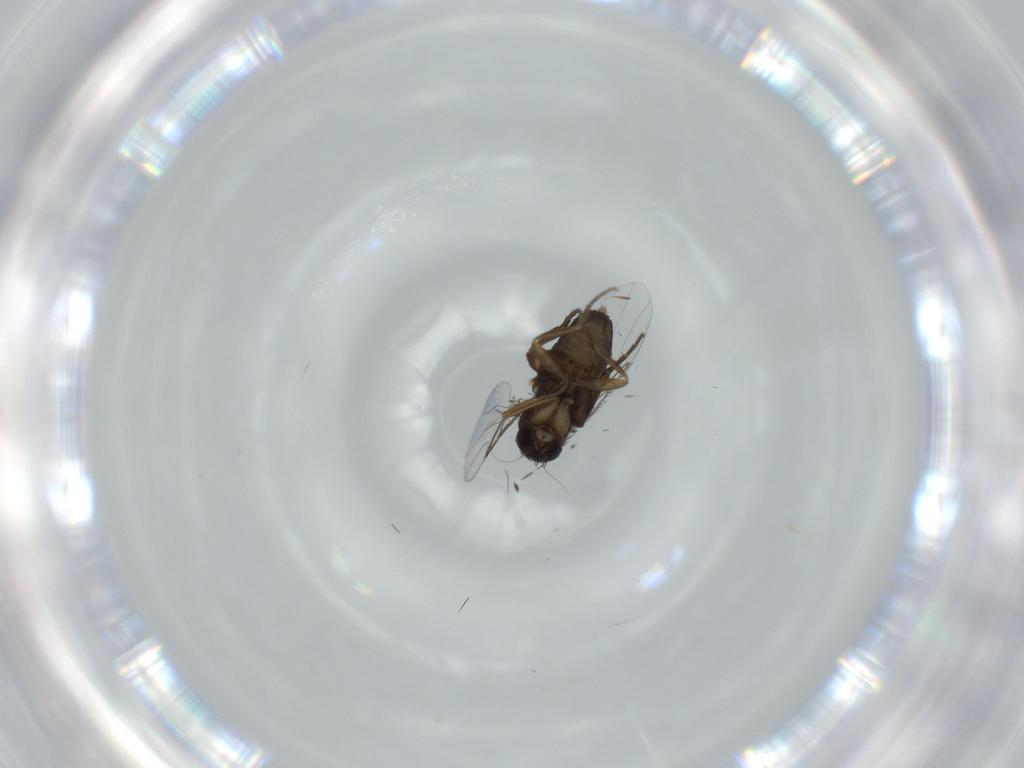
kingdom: Animalia
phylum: Arthropoda
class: Insecta
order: Diptera
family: Phoridae
